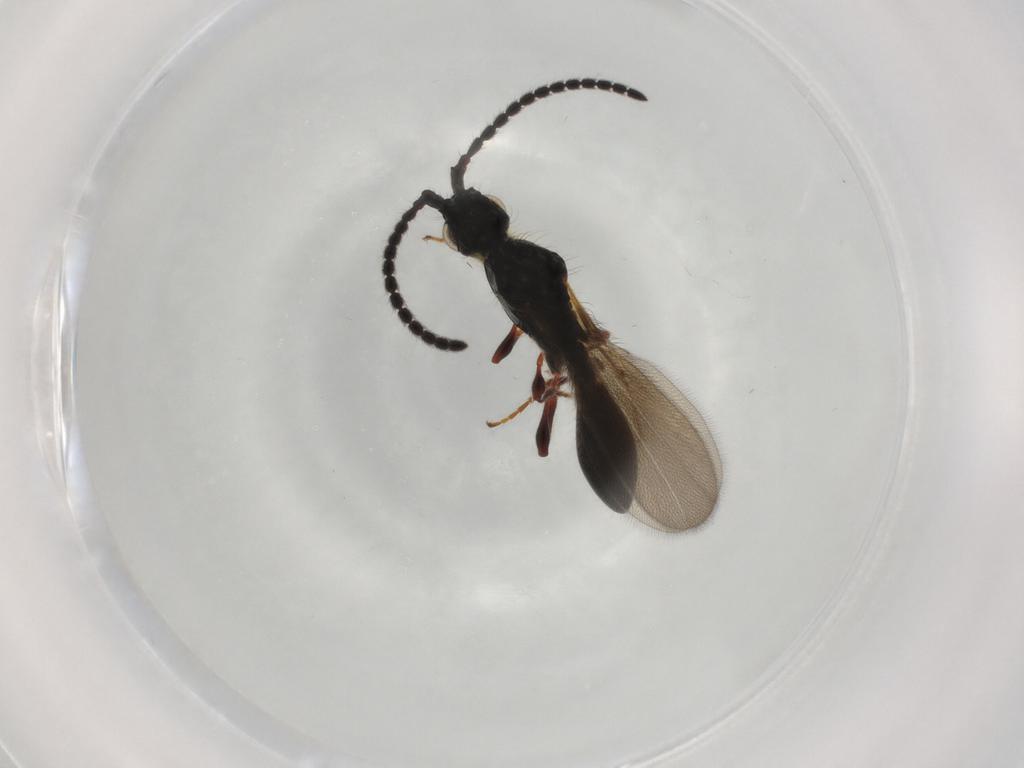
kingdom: Animalia
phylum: Arthropoda
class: Insecta
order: Hymenoptera
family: Diapriidae
